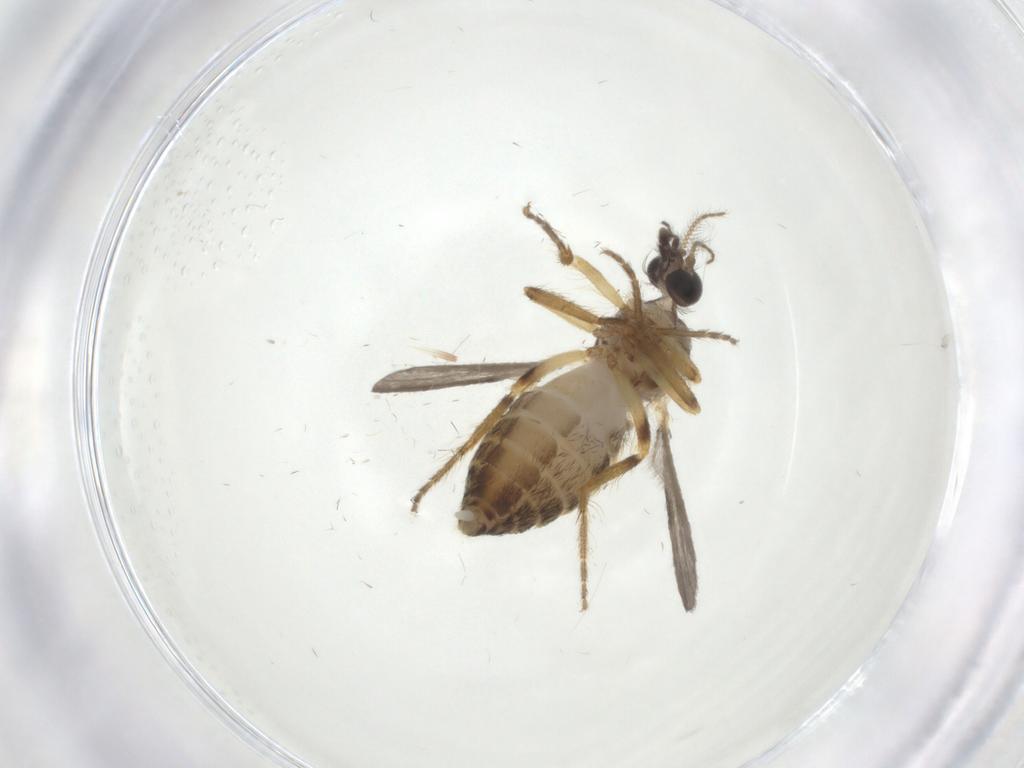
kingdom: Animalia
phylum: Arthropoda
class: Insecta
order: Diptera
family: Ceratopogonidae
